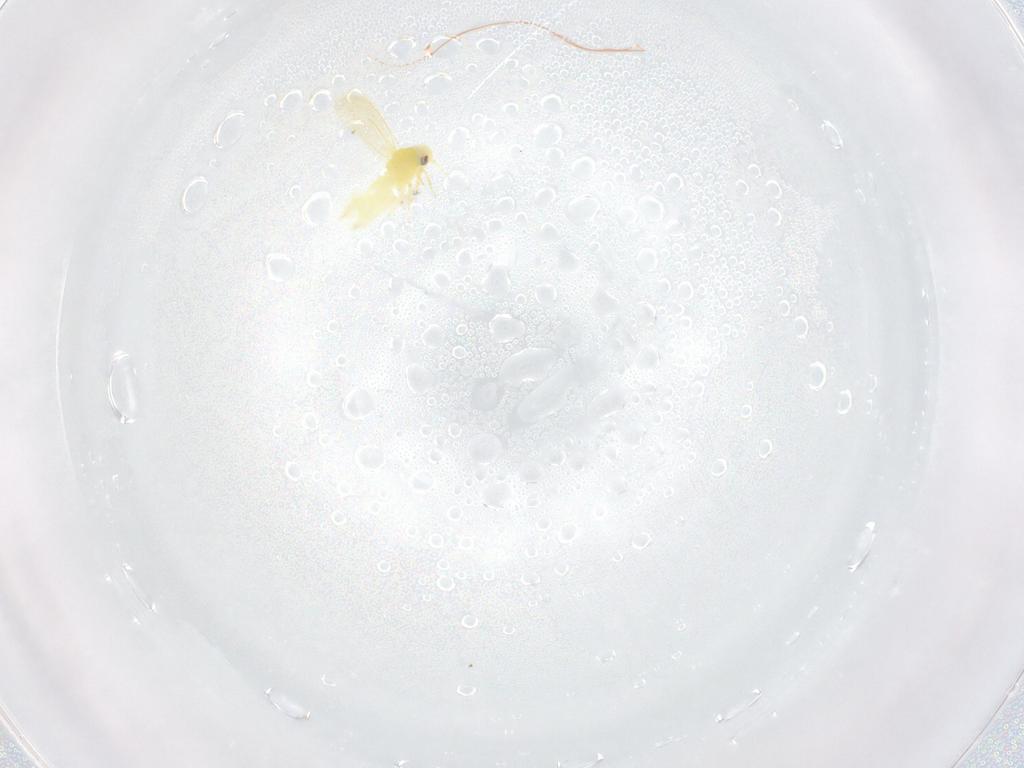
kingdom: Animalia
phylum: Arthropoda
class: Insecta
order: Hemiptera
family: Aleyrodidae
